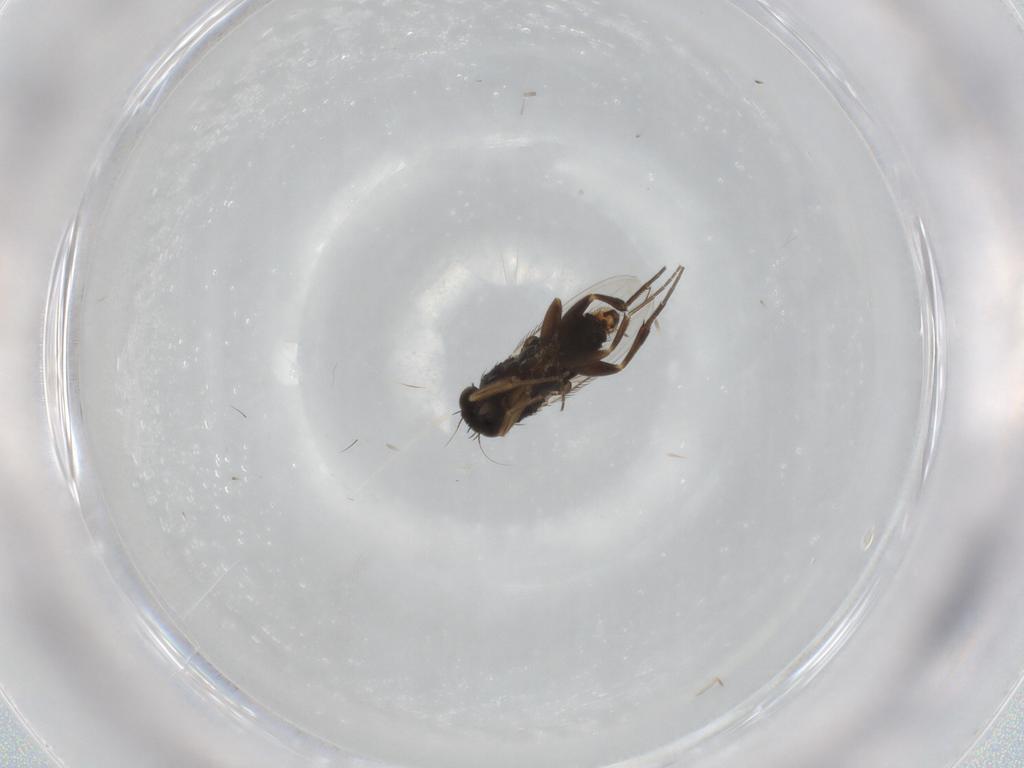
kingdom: Animalia
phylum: Arthropoda
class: Insecta
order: Diptera
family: Phoridae
